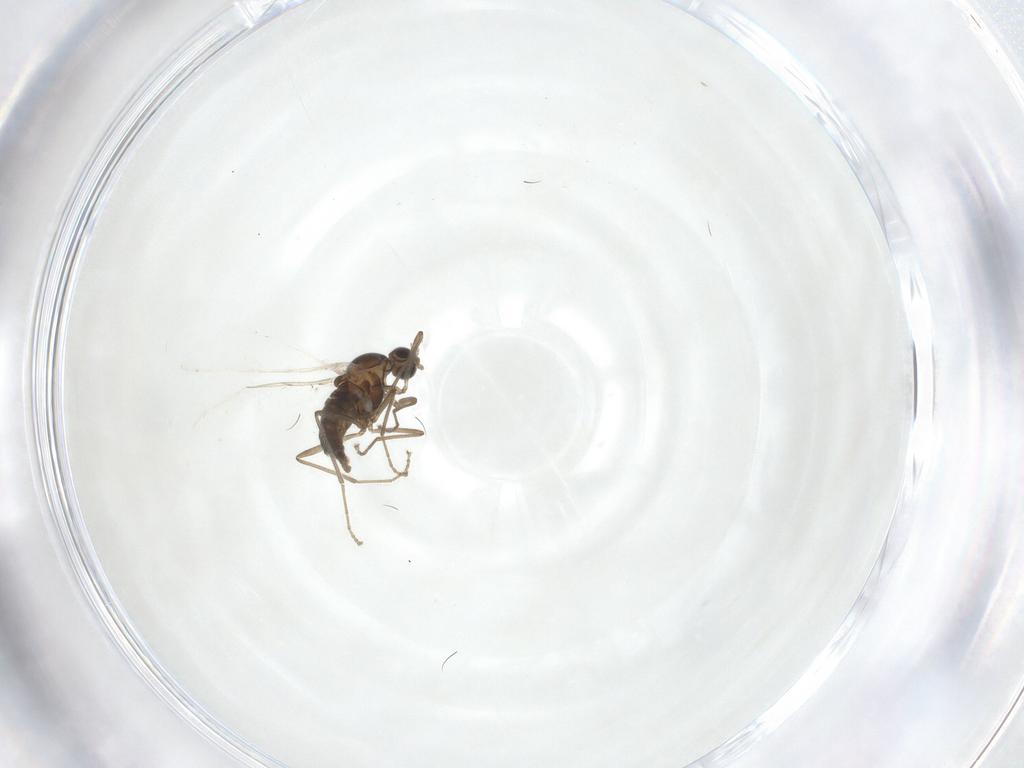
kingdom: Animalia
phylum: Arthropoda
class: Insecta
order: Diptera
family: Cecidomyiidae
